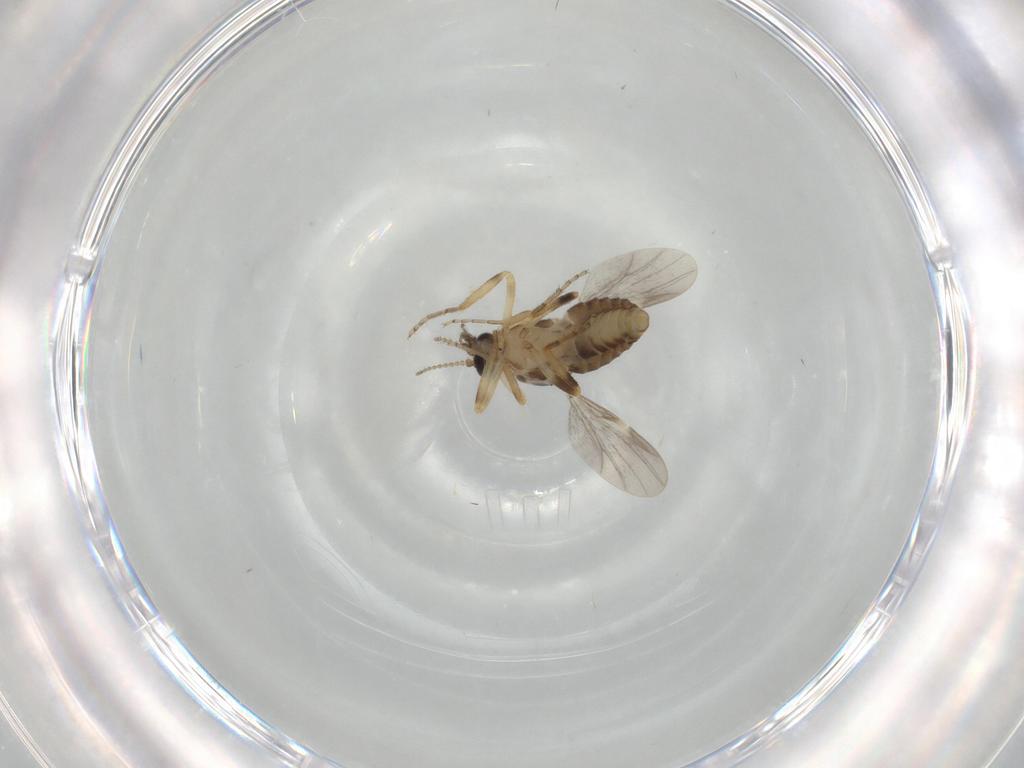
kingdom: Animalia
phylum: Arthropoda
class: Insecta
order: Diptera
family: Ceratopogonidae
